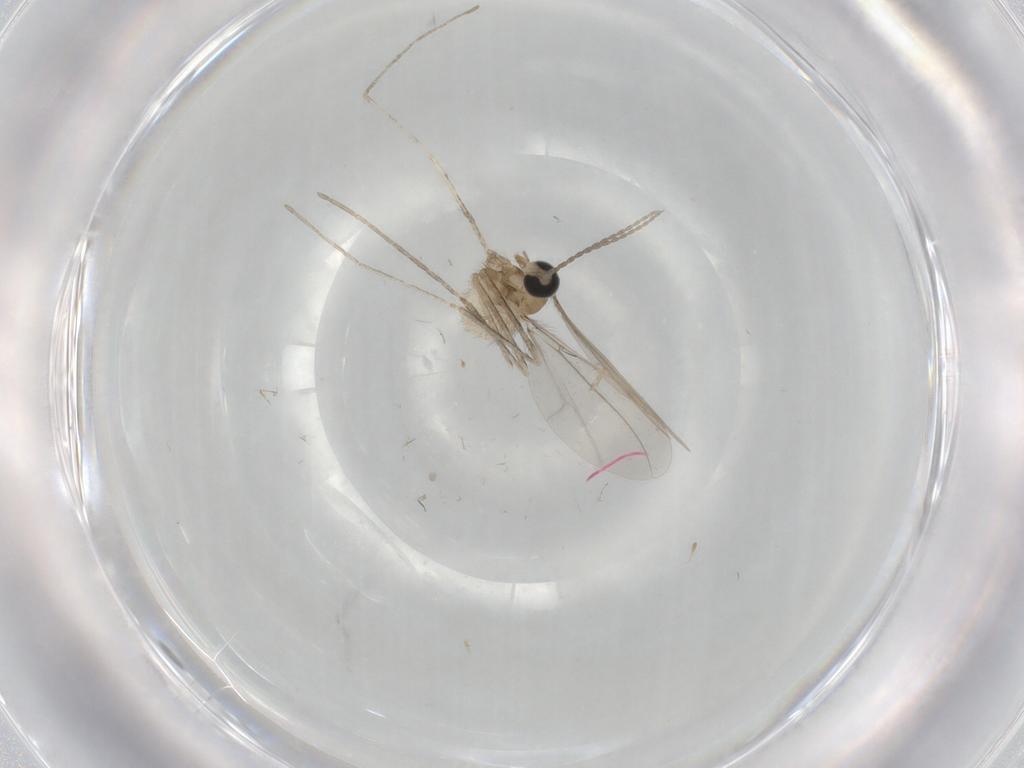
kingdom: Animalia
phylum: Arthropoda
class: Insecta
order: Diptera
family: Cecidomyiidae
